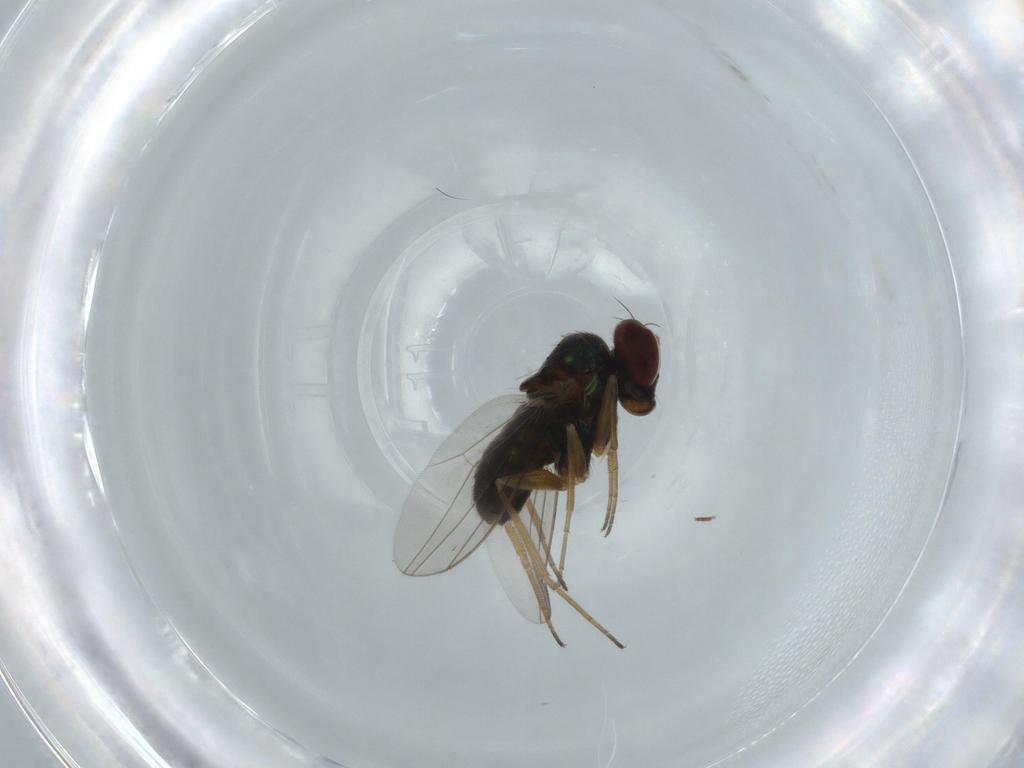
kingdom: Animalia
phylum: Arthropoda
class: Insecta
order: Diptera
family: Dolichopodidae
